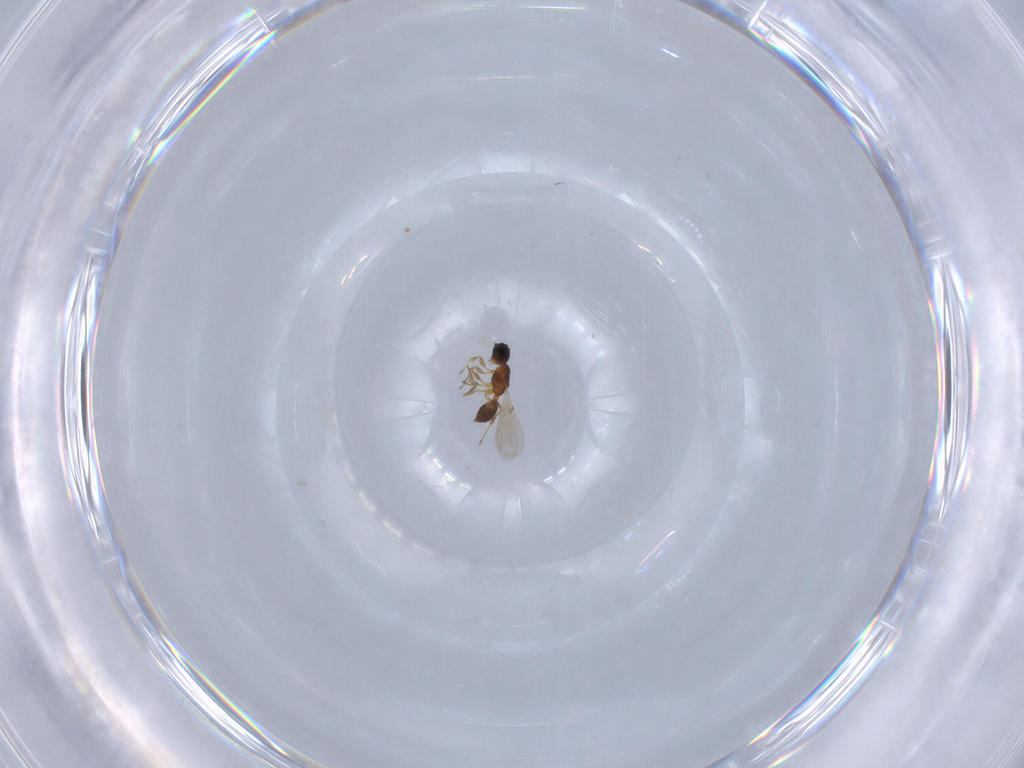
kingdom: Animalia
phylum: Arthropoda
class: Insecta
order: Hymenoptera
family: Diapriidae
